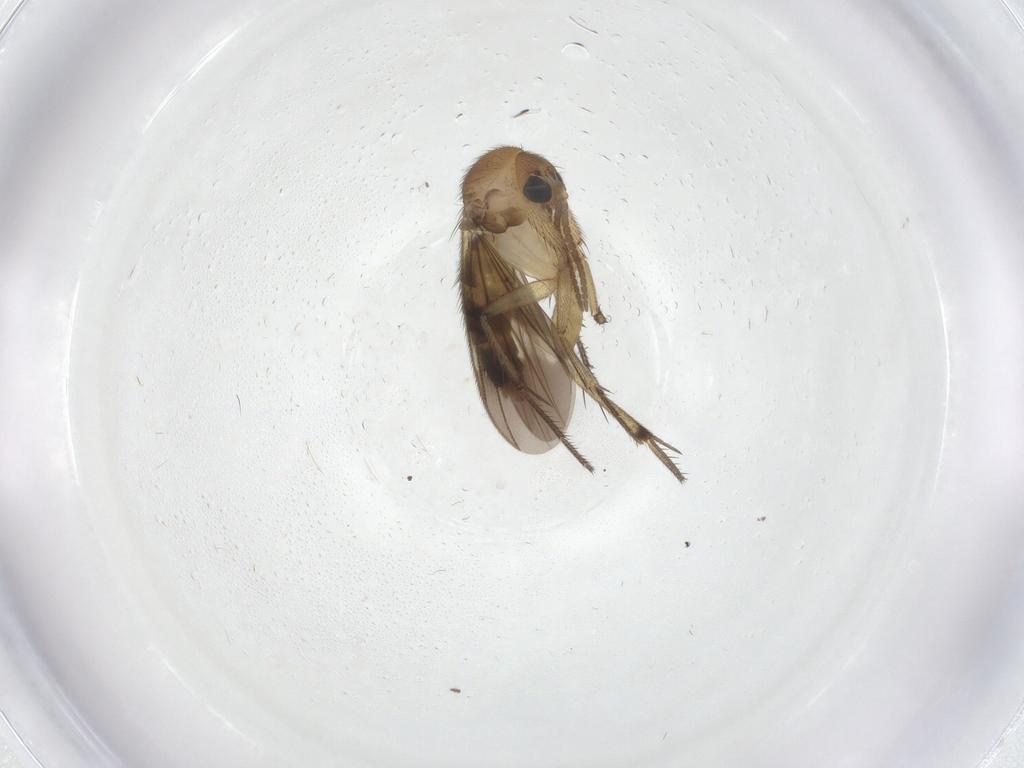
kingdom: Animalia
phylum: Arthropoda
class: Insecta
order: Diptera
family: Mycetophilidae
